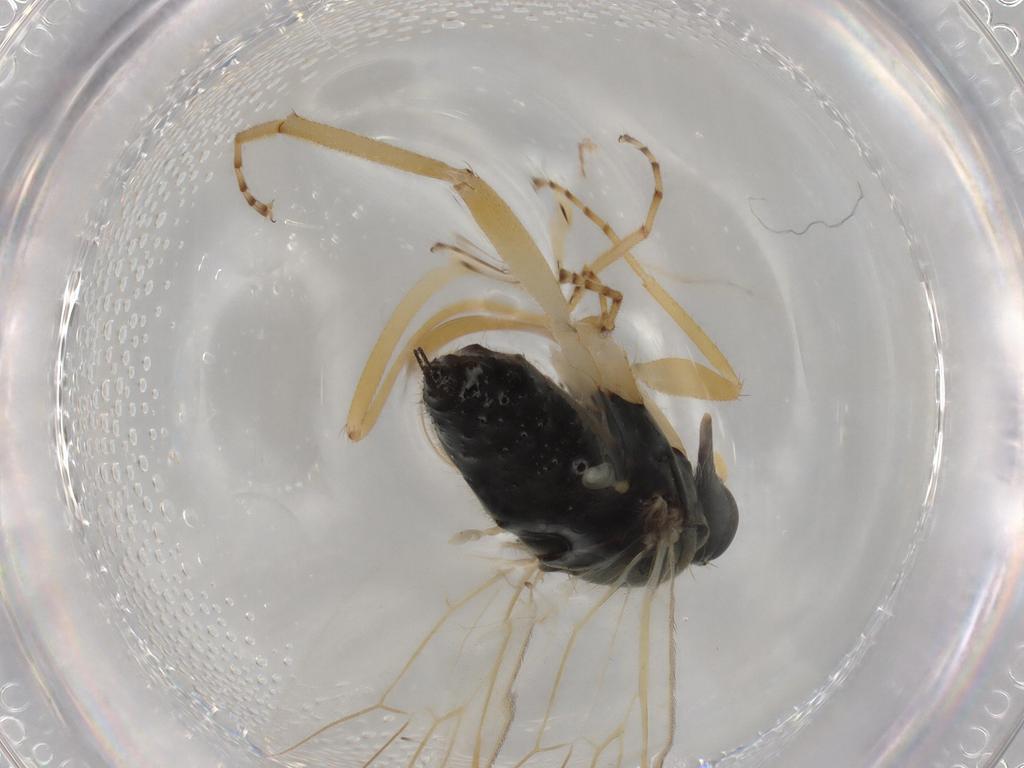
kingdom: Animalia
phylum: Arthropoda
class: Insecta
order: Diptera
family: Hybotidae
